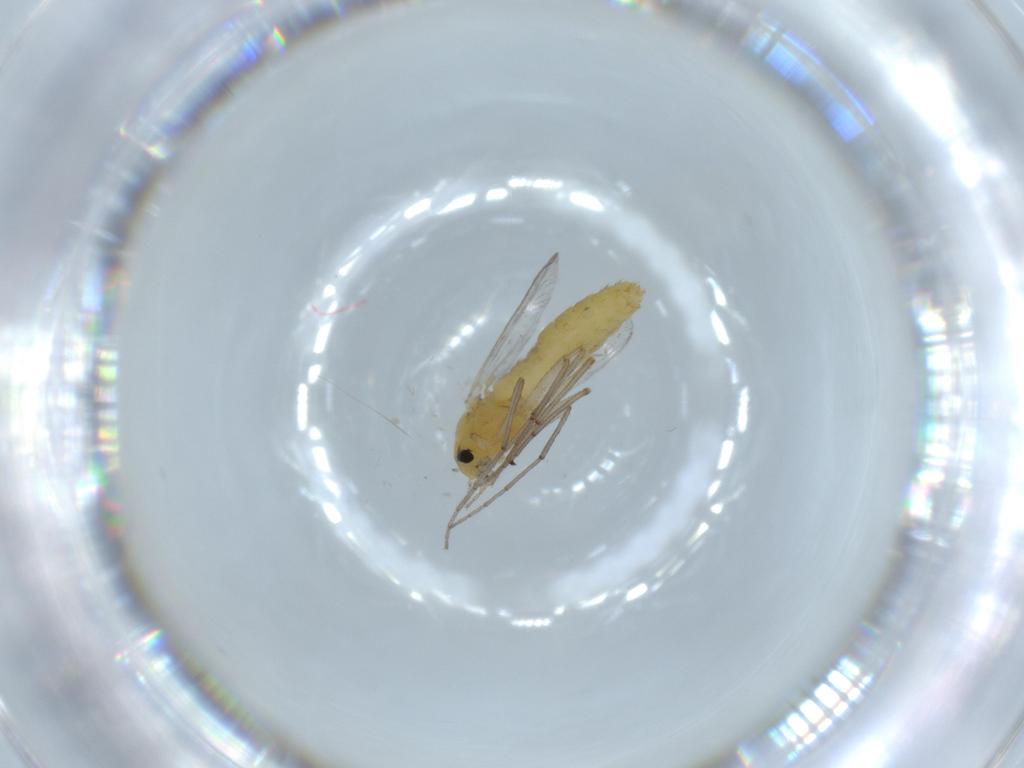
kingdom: Animalia
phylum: Arthropoda
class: Insecta
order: Diptera
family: Chironomidae
